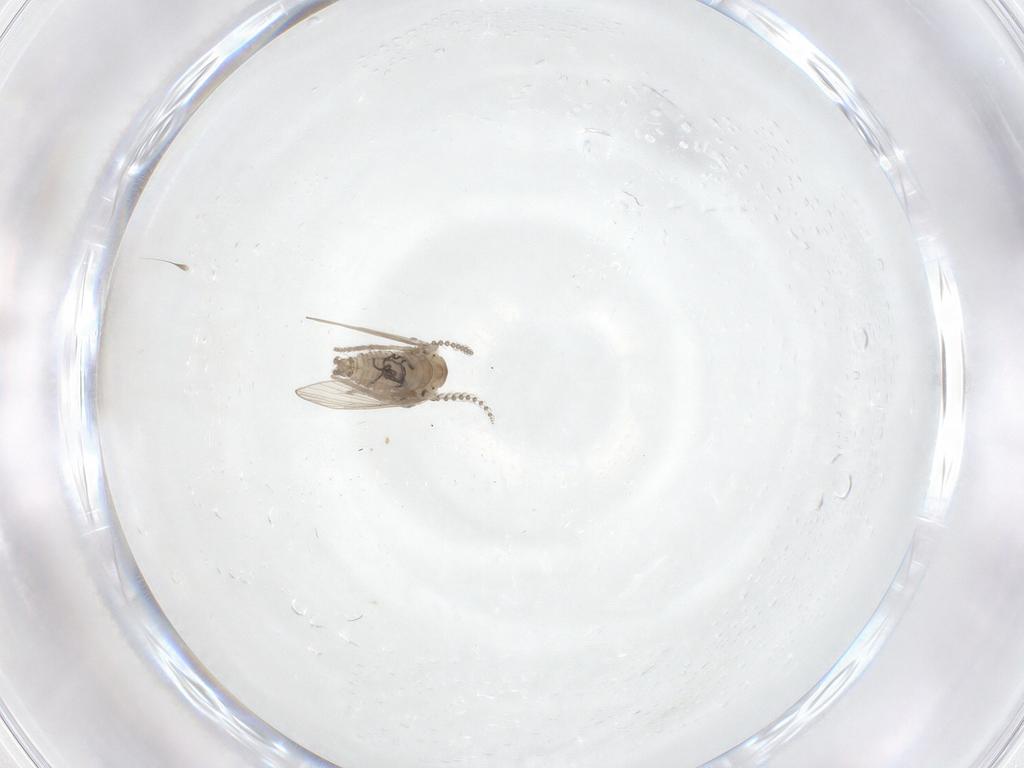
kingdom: Animalia
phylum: Arthropoda
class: Insecta
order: Diptera
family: Psychodidae
